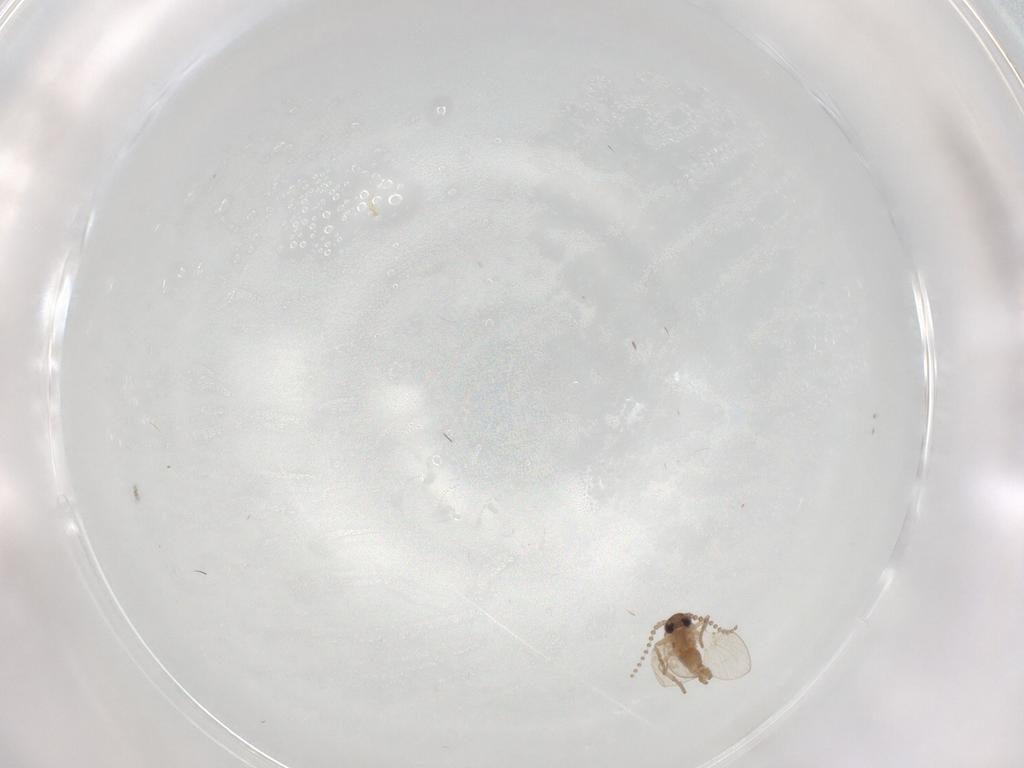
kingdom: Animalia
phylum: Arthropoda
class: Insecta
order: Diptera
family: Psychodidae
